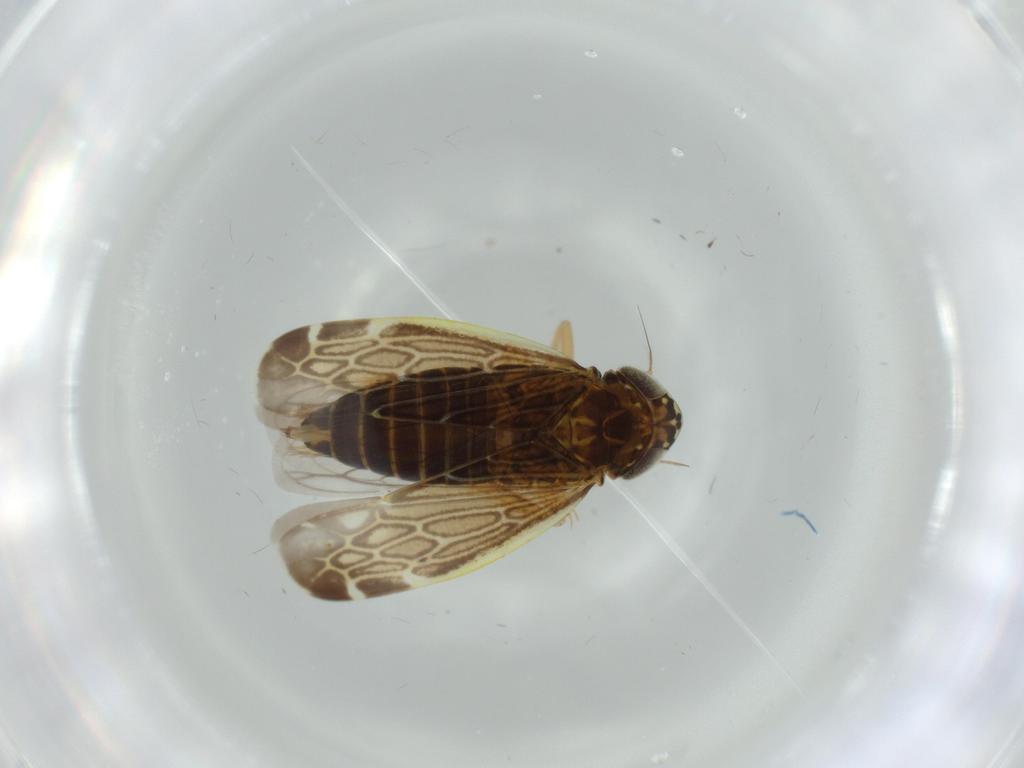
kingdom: Animalia
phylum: Arthropoda
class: Insecta
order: Hemiptera
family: Cicadellidae
